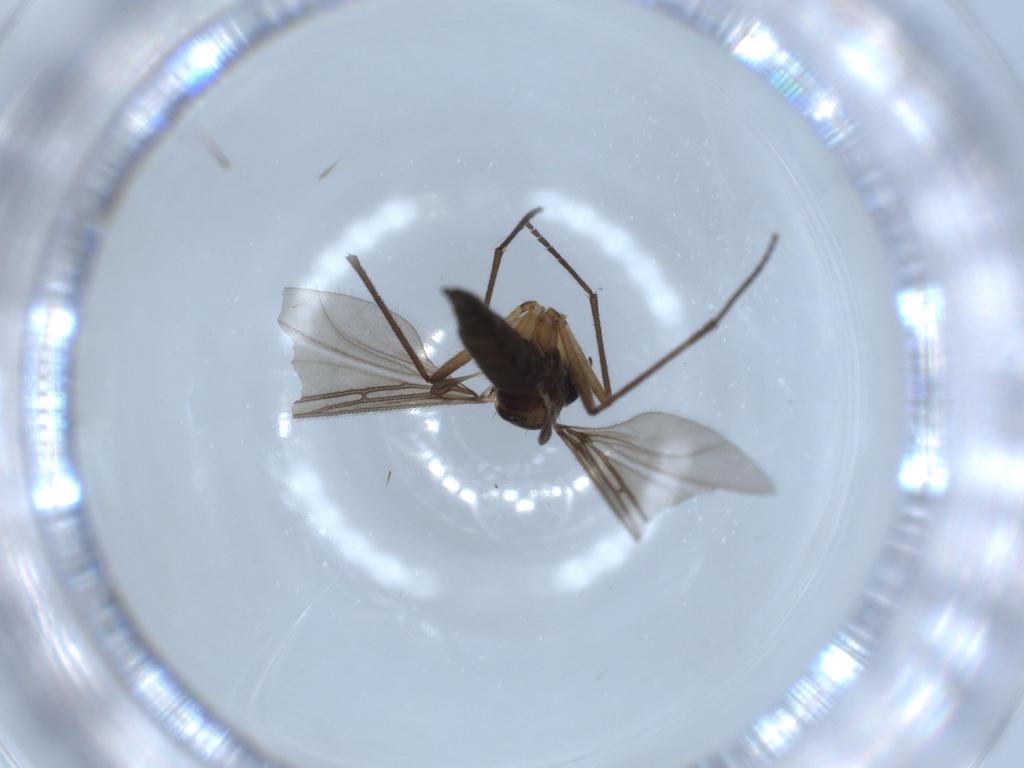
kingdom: Animalia
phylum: Arthropoda
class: Insecta
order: Diptera
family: Sciaridae
